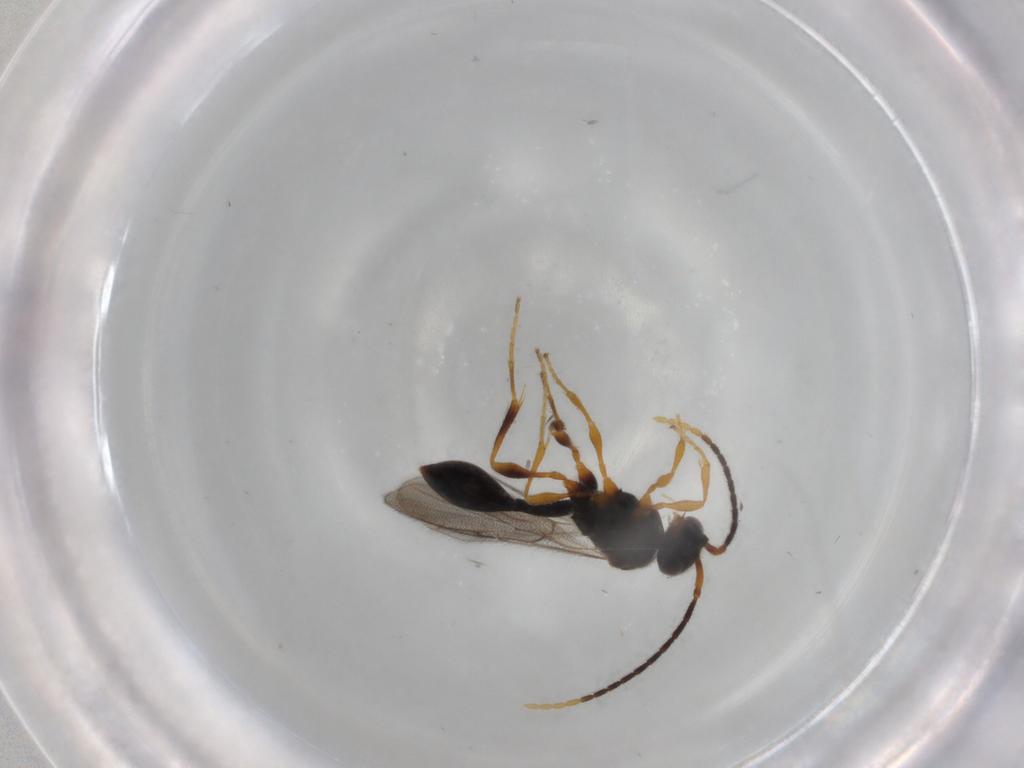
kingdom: Animalia
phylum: Arthropoda
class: Insecta
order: Hymenoptera
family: Diapriidae
